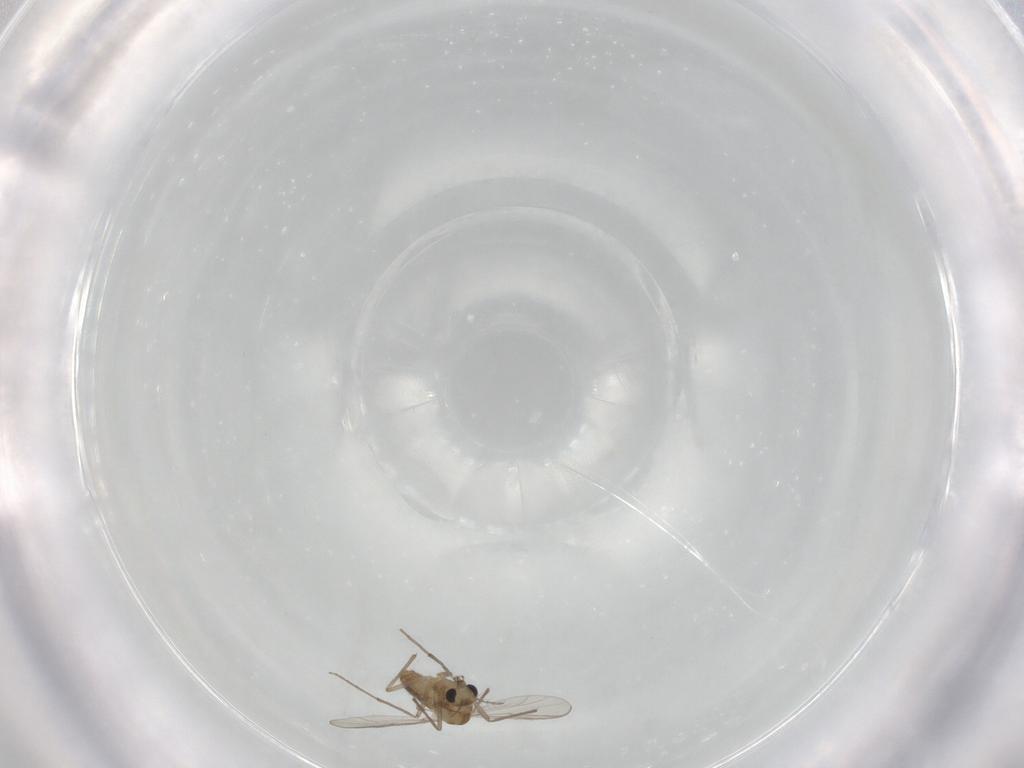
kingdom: Animalia
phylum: Arthropoda
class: Insecta
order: Diptera
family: Chironomidae
